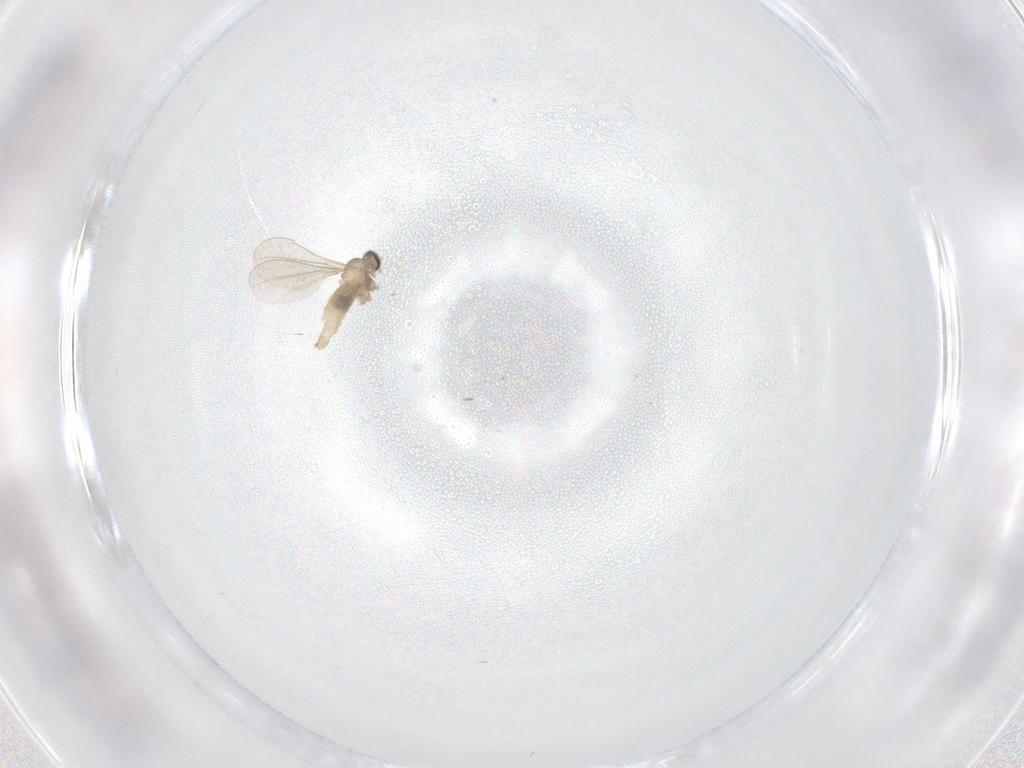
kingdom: Animalia
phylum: Arthropoda
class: Insecta
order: Diptera
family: Cecidomyiidae
